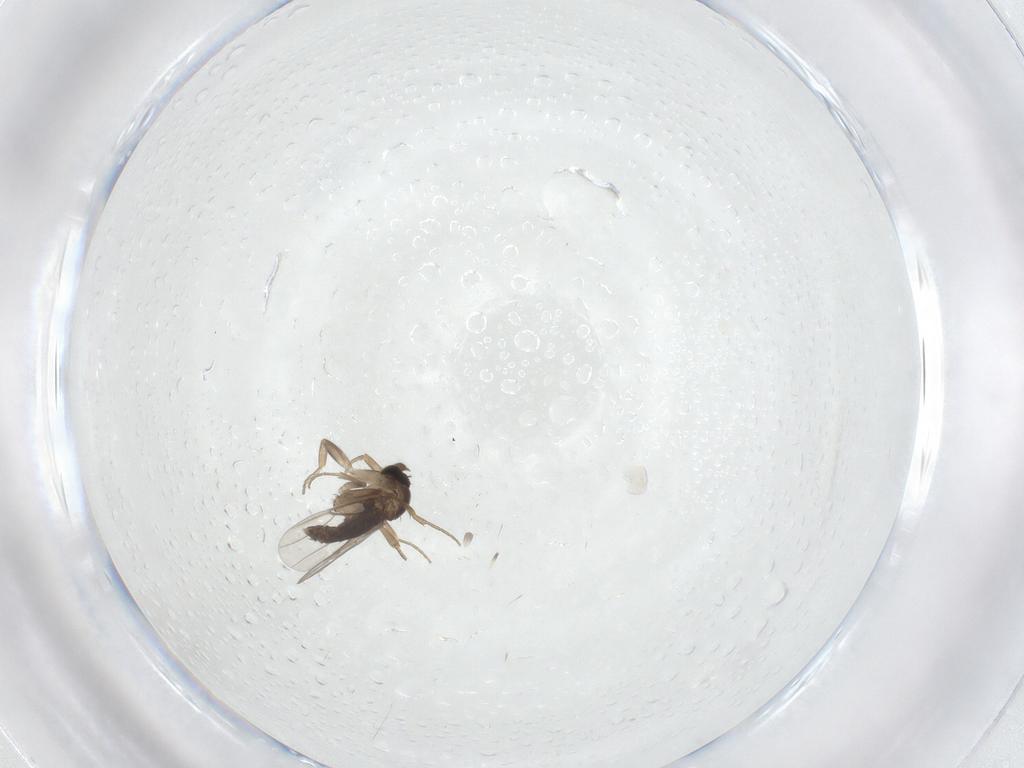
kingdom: Animalia
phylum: Arthropoda
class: Insecta
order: Diptera
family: Phoridae
